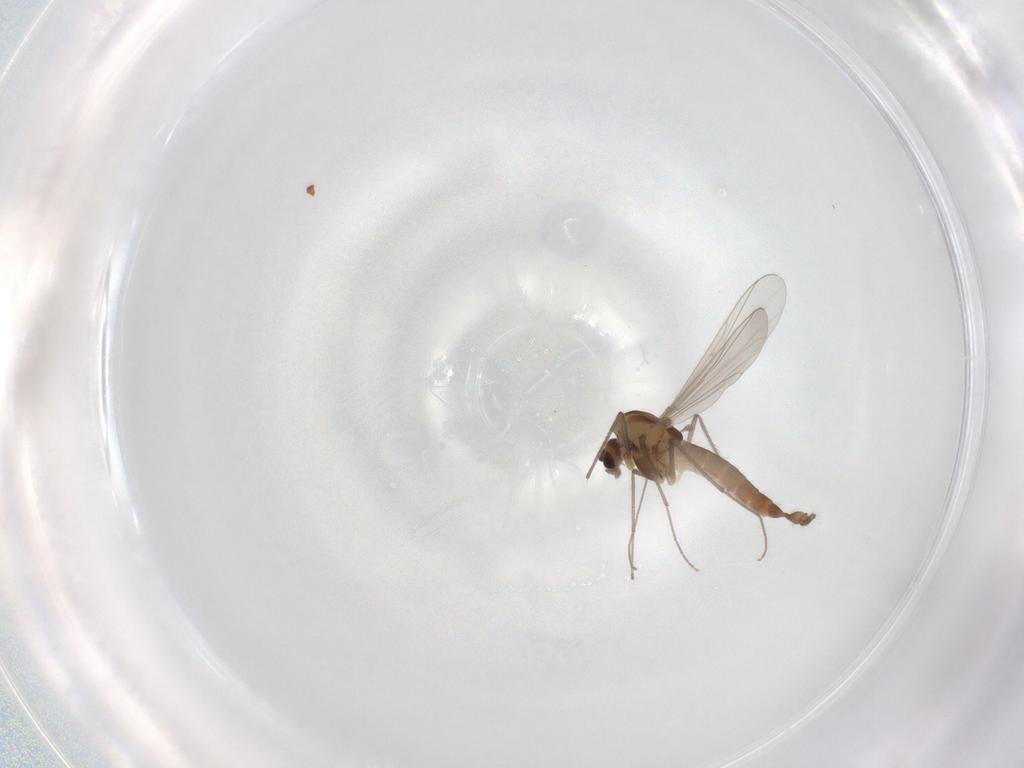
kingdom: Animalia
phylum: Arthropoda
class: Insecta
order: Diptera
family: Chironomidae
